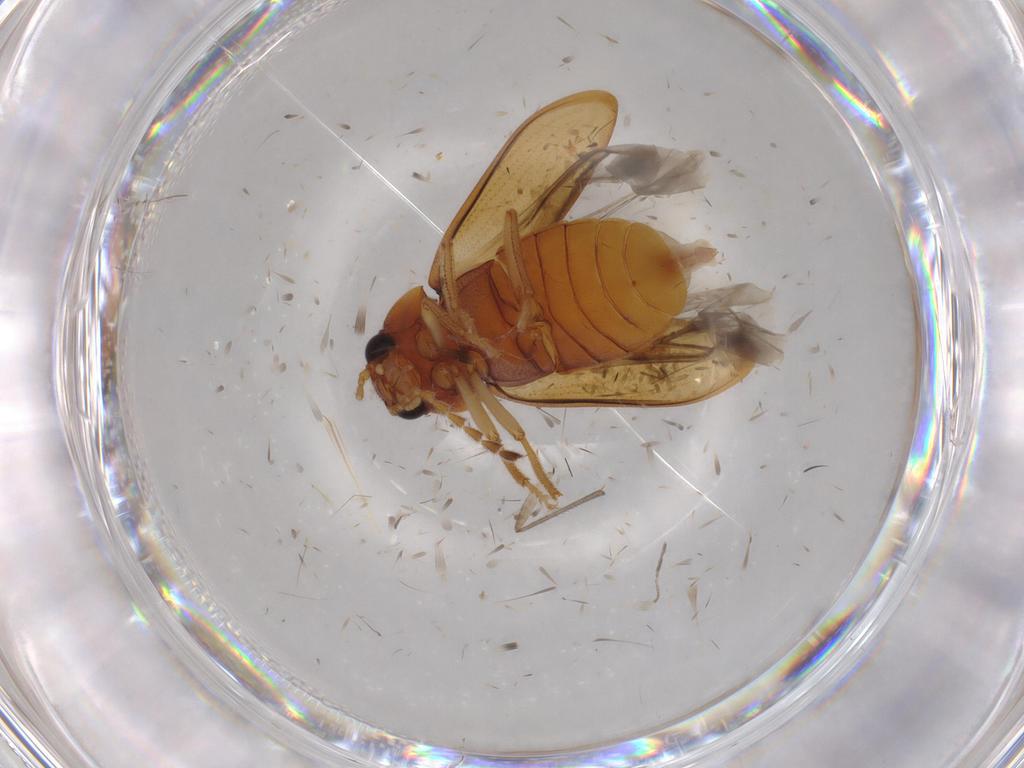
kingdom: Animalia
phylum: Arthropoda
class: Insecta
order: Coleoptera
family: Ptilodactylidae
